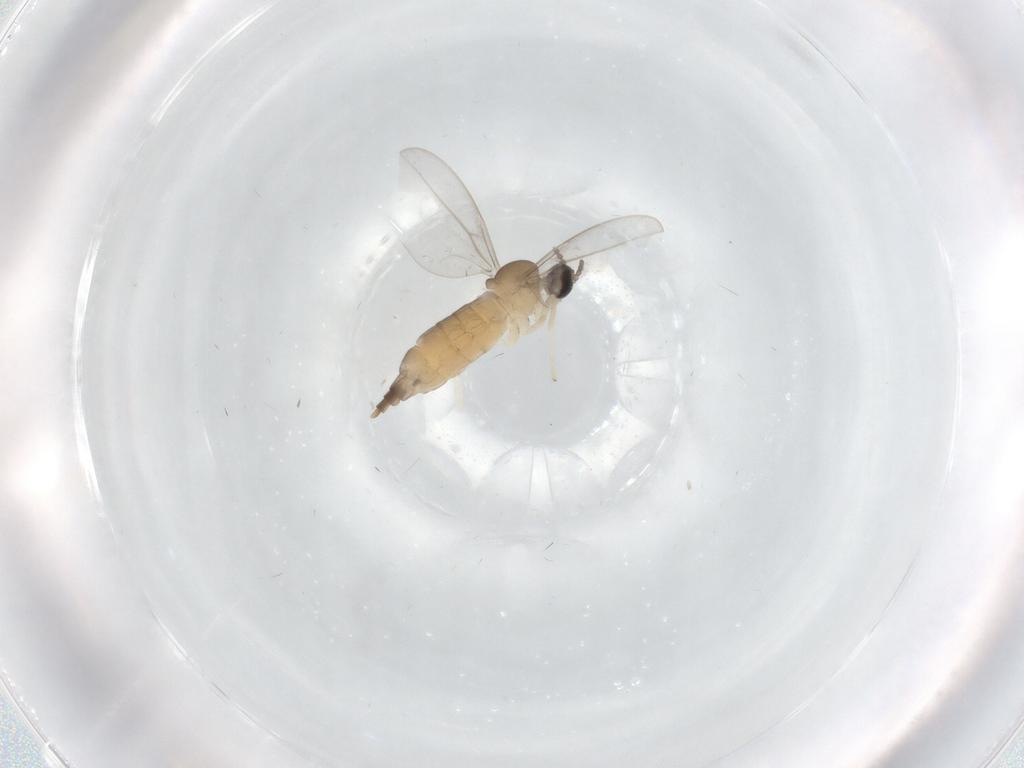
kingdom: Animalia
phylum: Arthropoda
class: Insecta
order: Diptera
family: Cecidomyiidae
